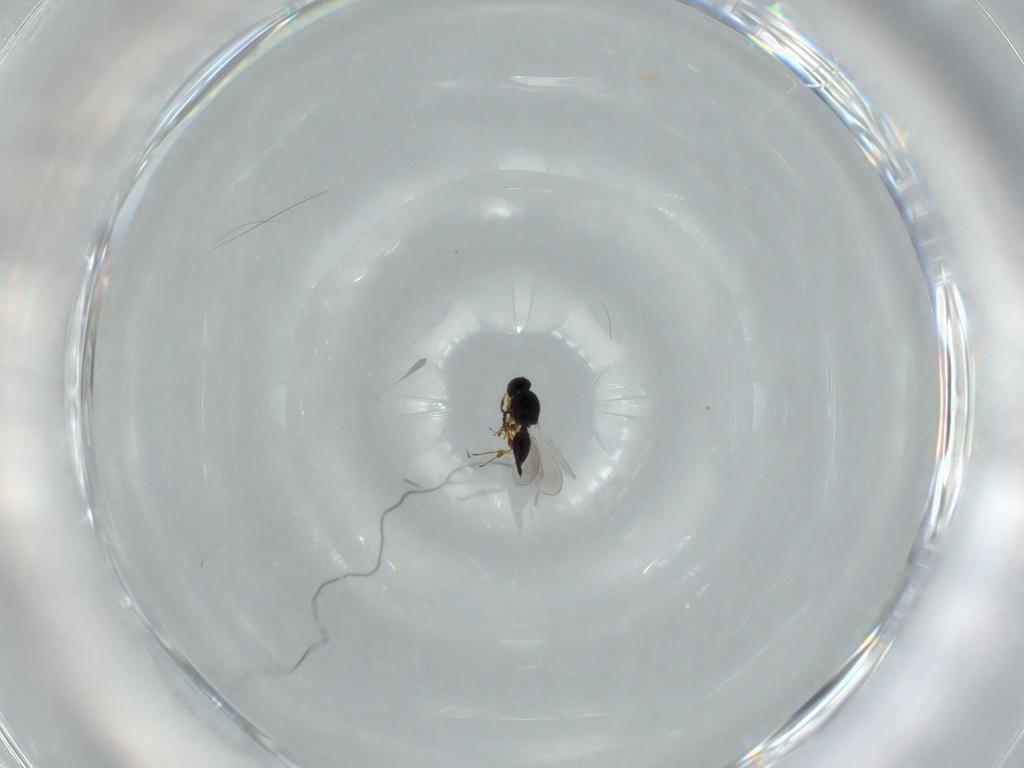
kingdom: Animalia
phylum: Arthropoda
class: Insecta
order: Hymenoptera
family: Platygastridae
